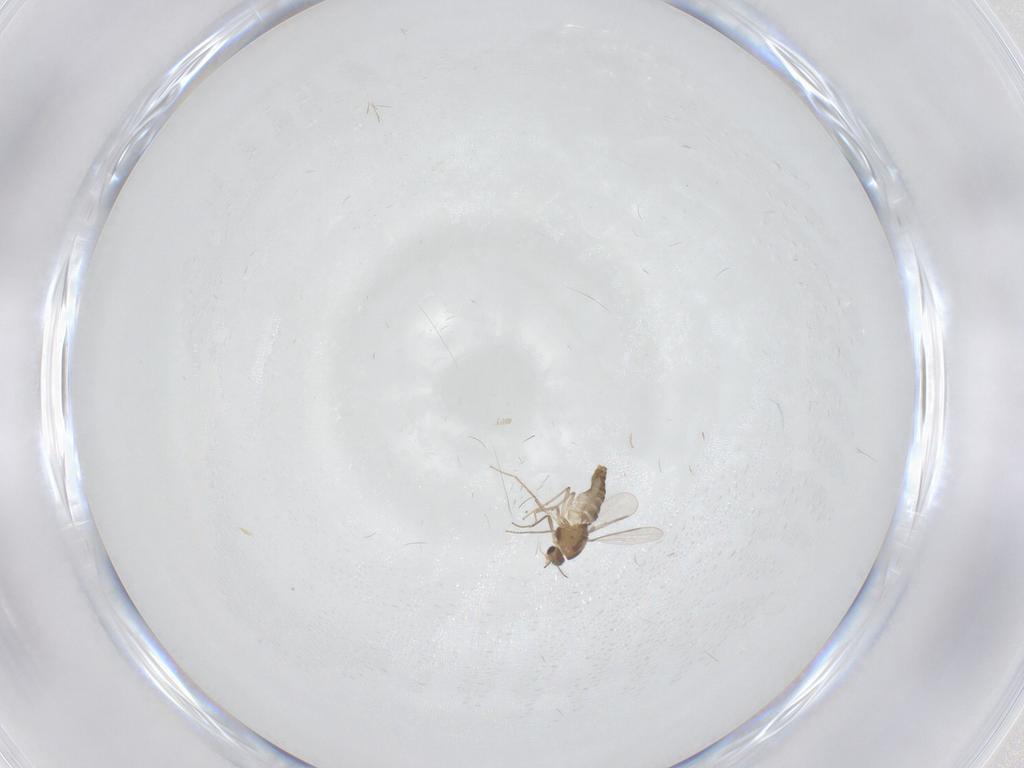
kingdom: Animalia
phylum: Arthropoda
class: Insecta
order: Diptera
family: Chironomidae
